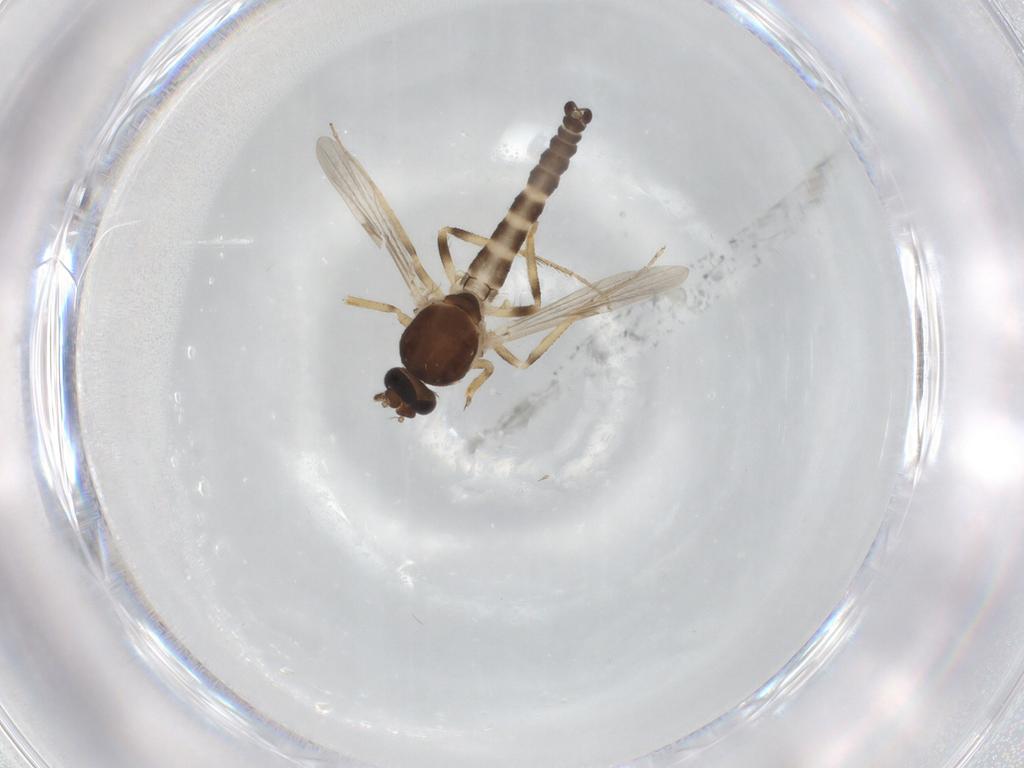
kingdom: Animalia
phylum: Arthropoda
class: Insecta
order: Diptera
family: Ceratopogonidae
